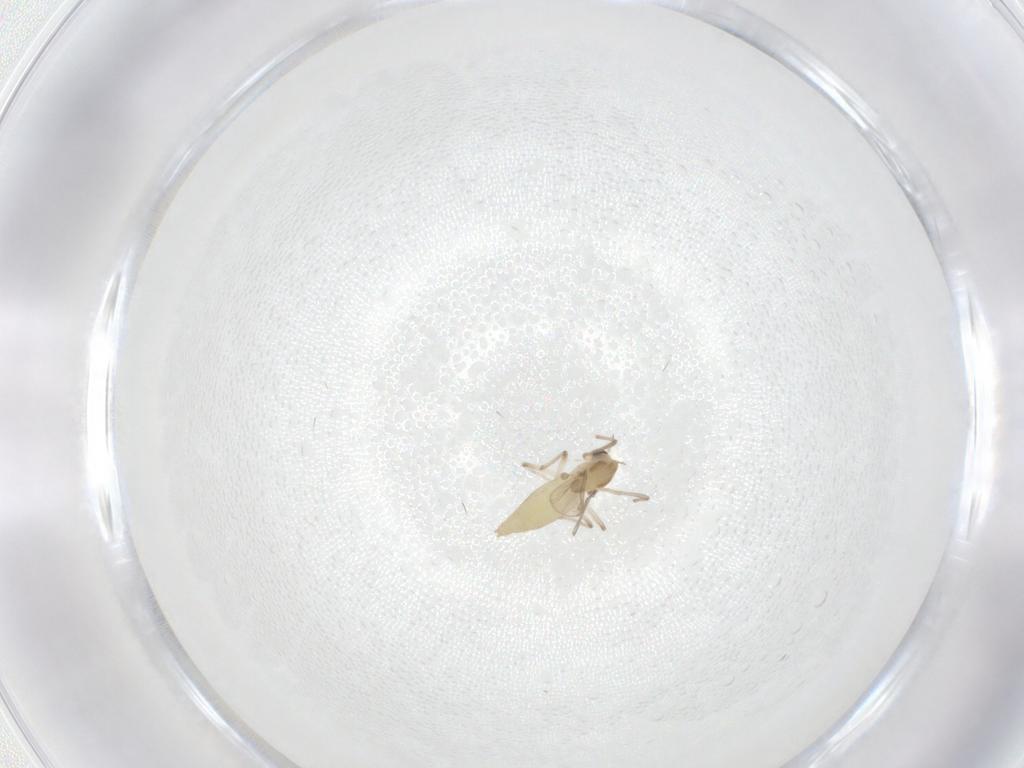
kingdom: Animalia
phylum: Arthropoda
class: Insecta
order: Diptera
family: Chironomidae
